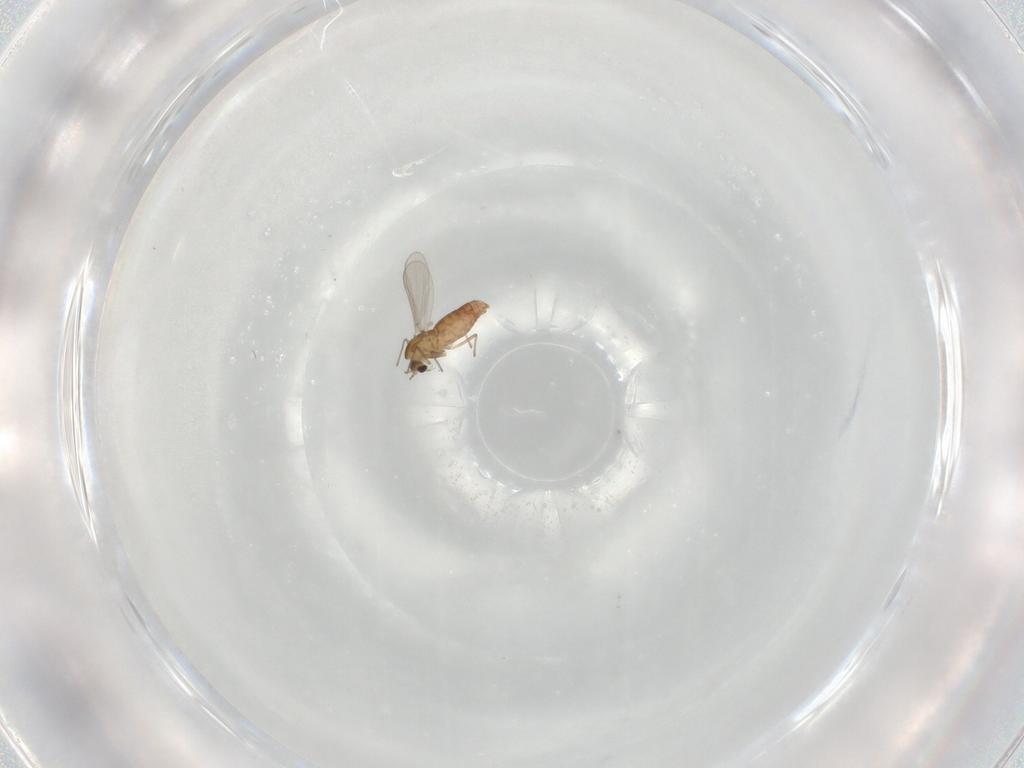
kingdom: Animalia
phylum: Arthropoda
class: Insecta
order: Diptera
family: Chironomidae
